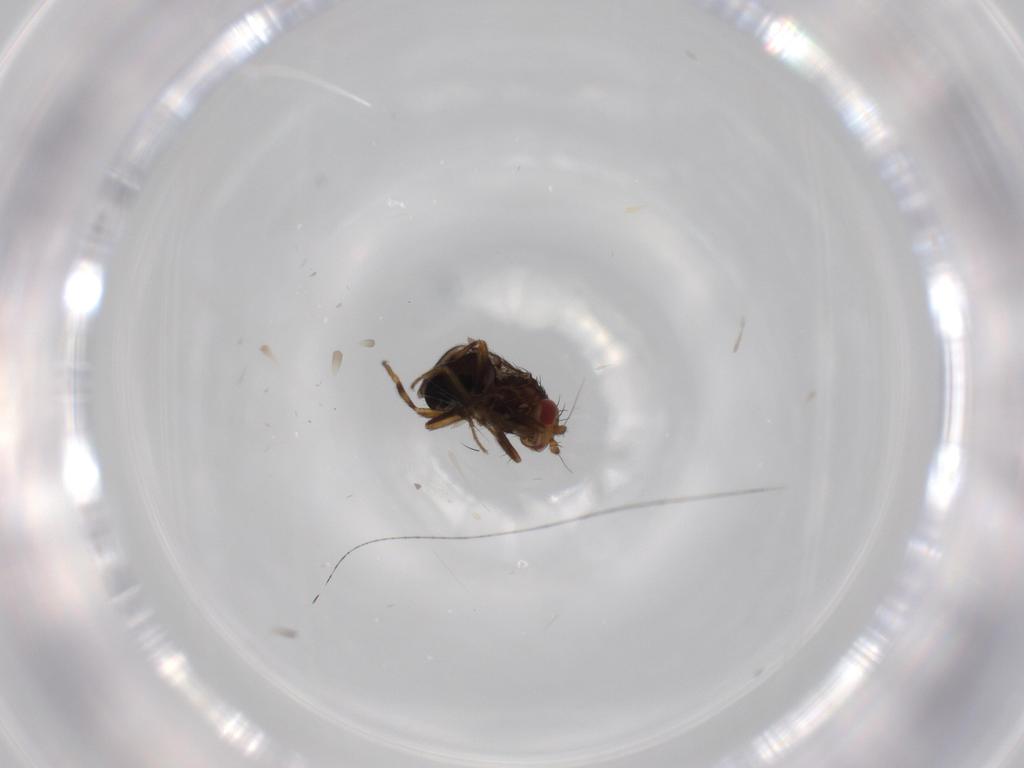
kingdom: Animalia
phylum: Arthropoda
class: Insecta
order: Diptera
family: Sphaeroceridae
